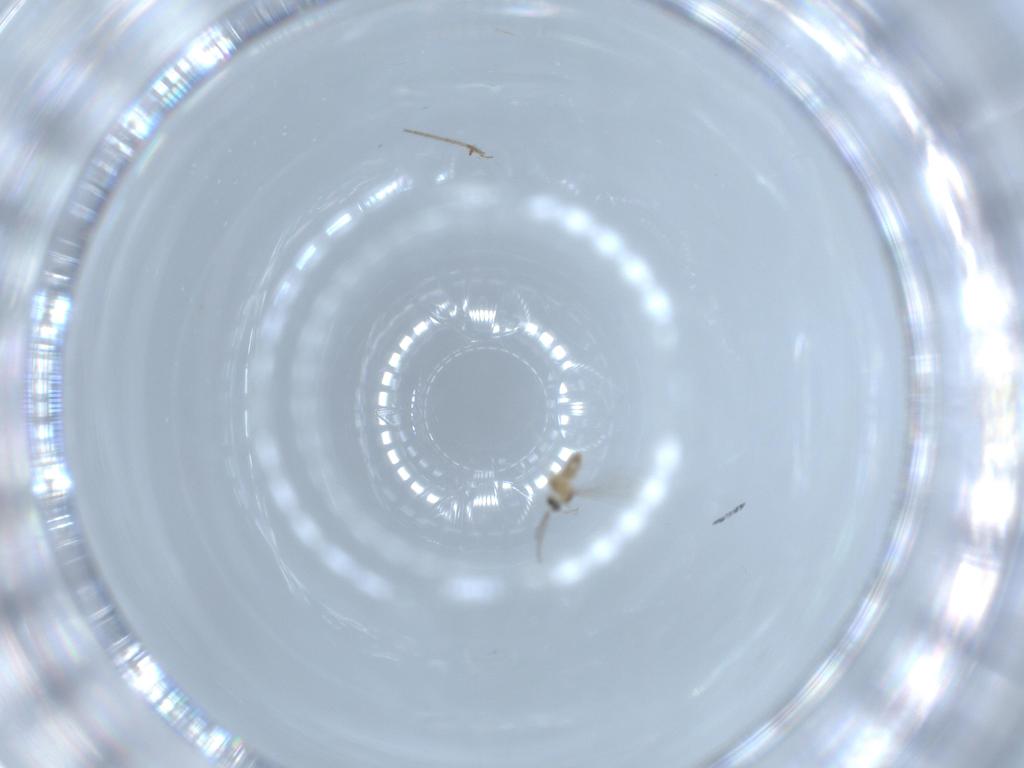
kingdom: Animalia
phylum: Arthropoda
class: Insecta
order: Diptera
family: Cecidomyiidae
